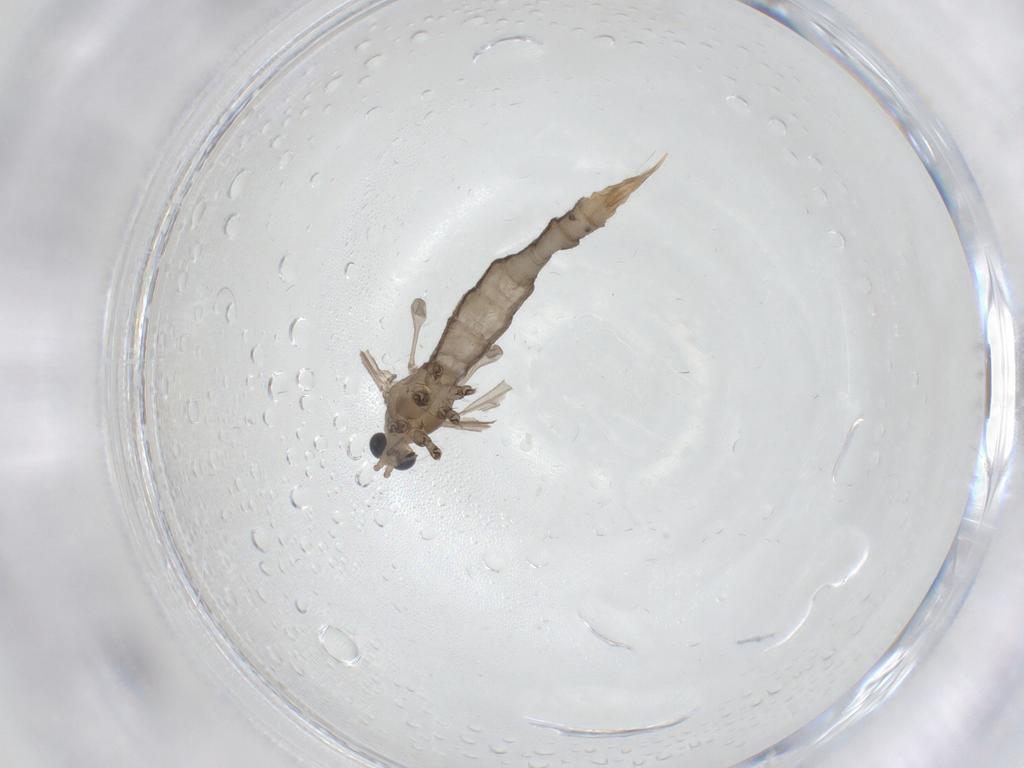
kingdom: Animalia
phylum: Arthropoda
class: Insecta
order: Diptera
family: Limoniidae
